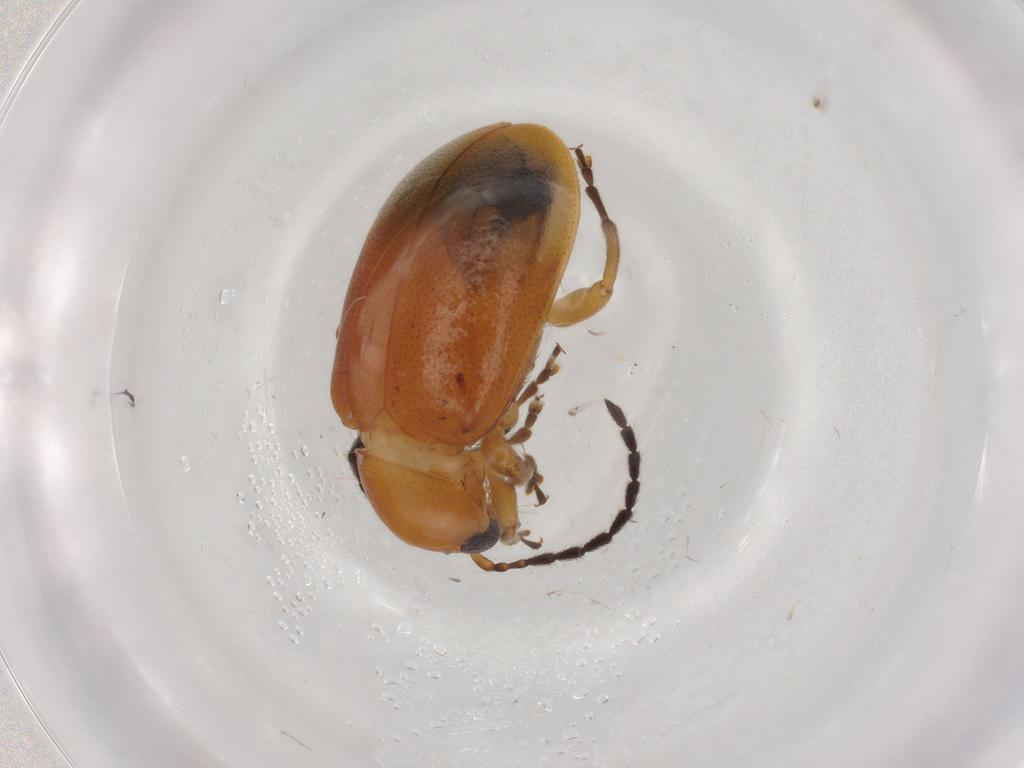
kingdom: Animalia
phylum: Arthropoda
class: Insecta
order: Coleoptera
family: Chrysomelidae
